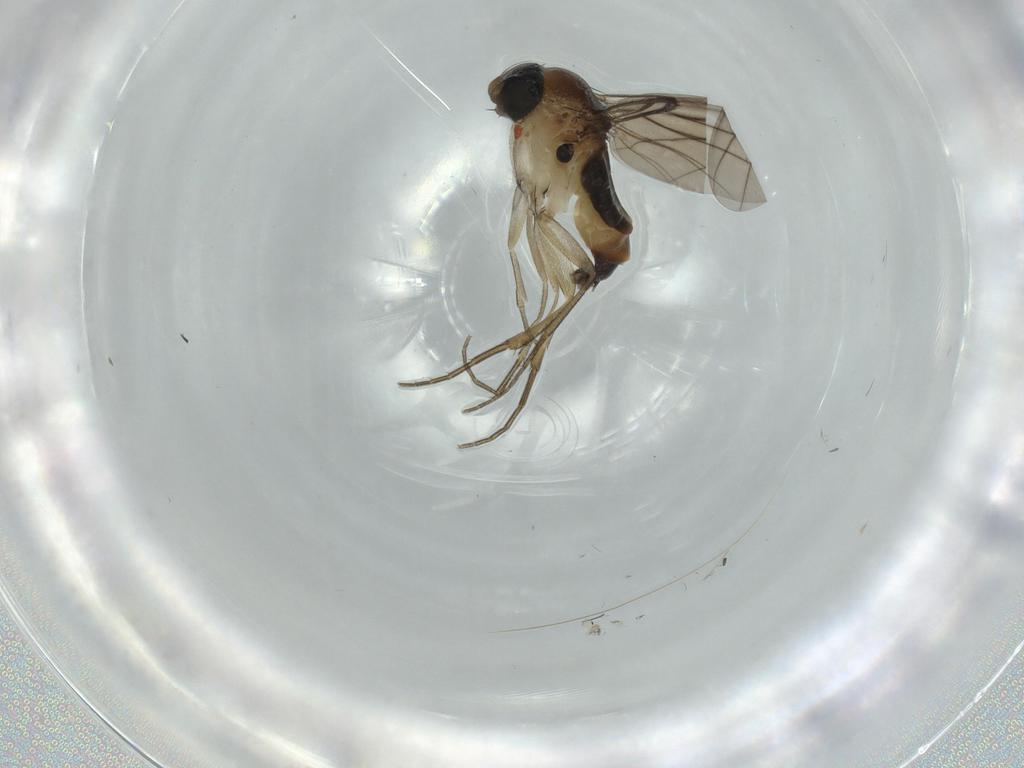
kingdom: Animalia
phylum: Arthropoda
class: Insecta
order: Diptera
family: Phoridae
